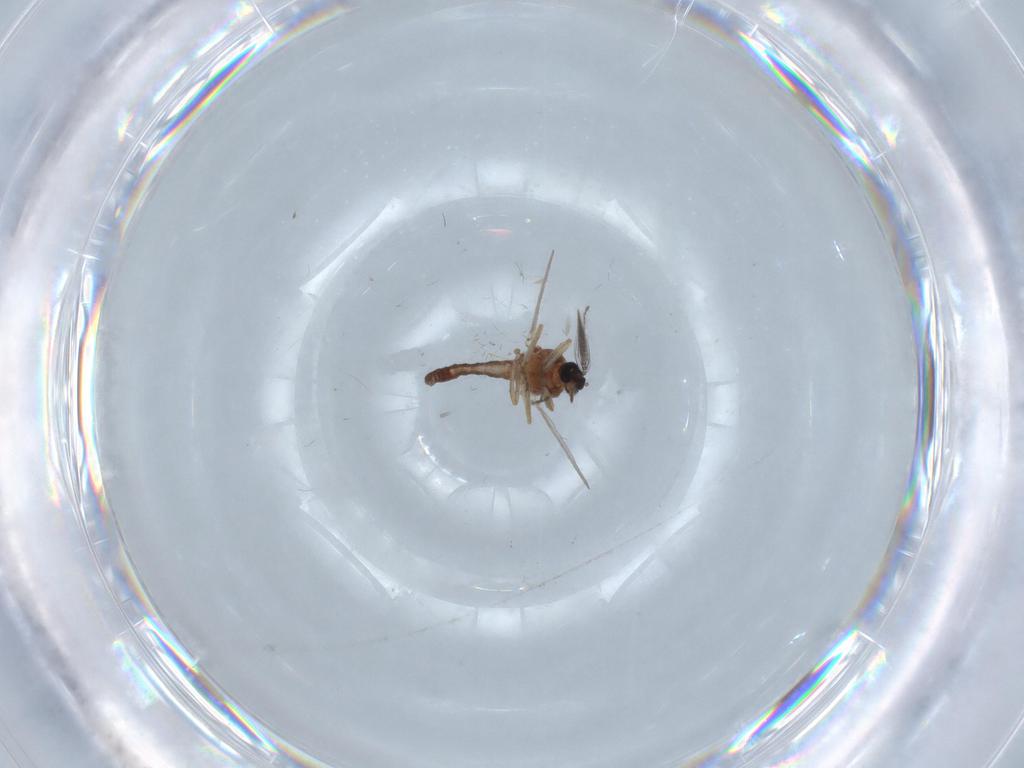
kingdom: Animalia
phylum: Arthropoda
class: Insecta
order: Diptera
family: Ceratopogonidae
